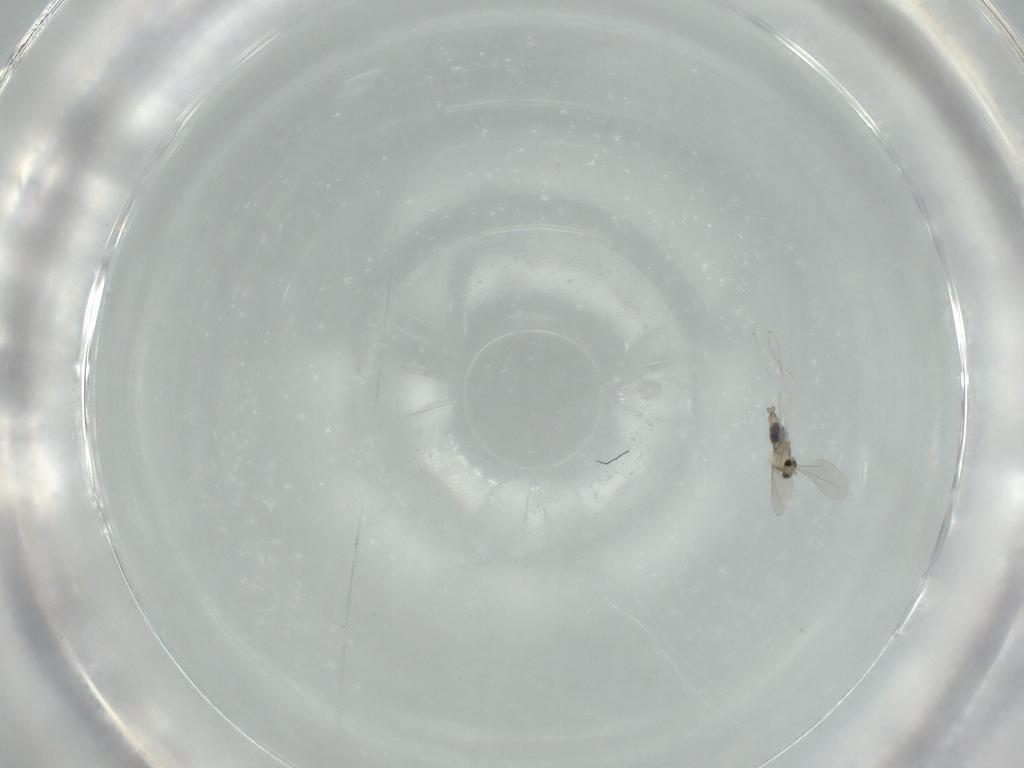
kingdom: Animalia
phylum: Arthropoda
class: Insecta
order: Diptera
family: Cecidomyiidae
